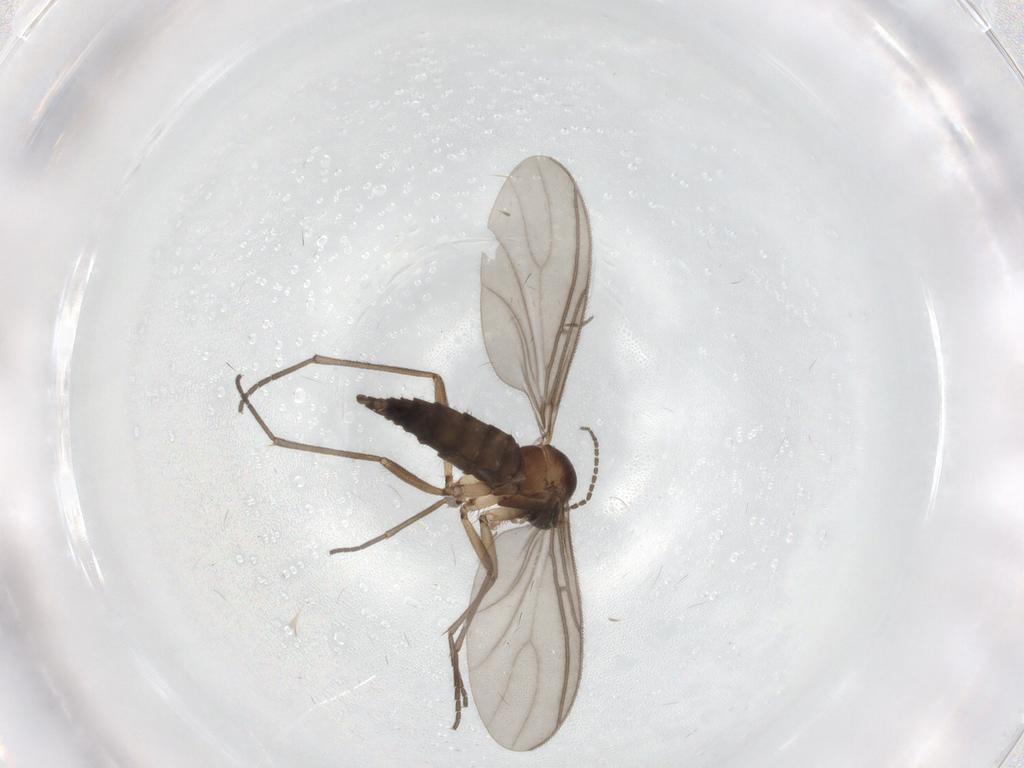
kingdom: Animalia
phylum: Arthropoda
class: Insecta
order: Diptera
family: Sciaridae
